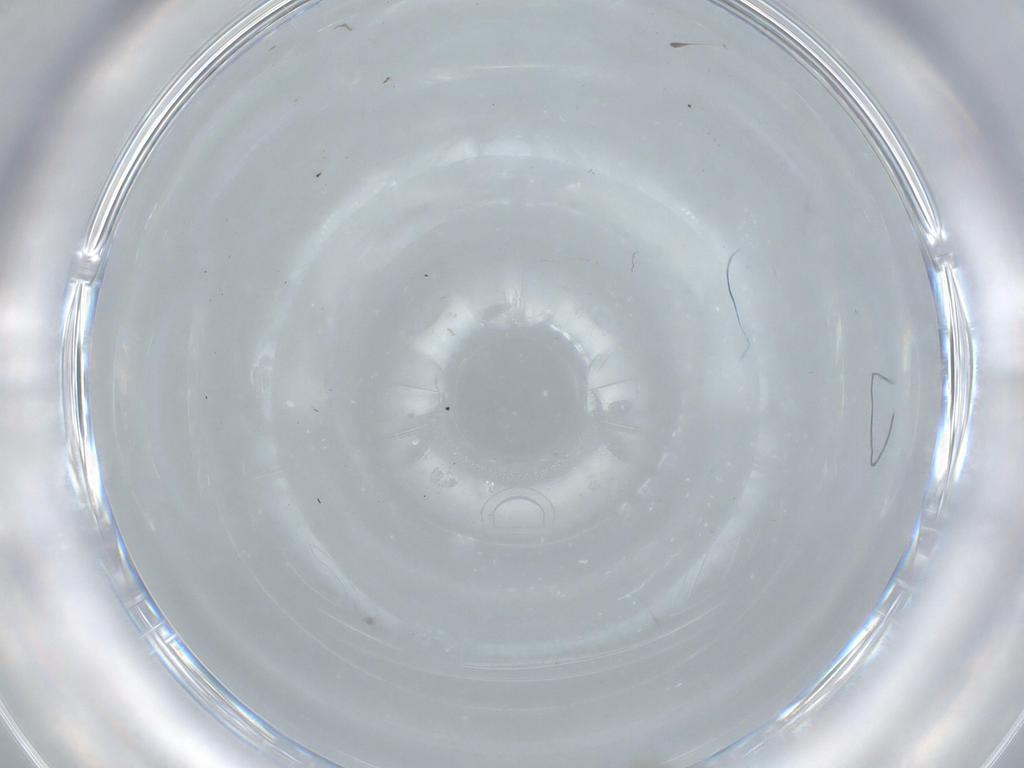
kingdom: Animalia
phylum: Arthropoda
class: Insecta
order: Diptera
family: Cecidomyiidae
